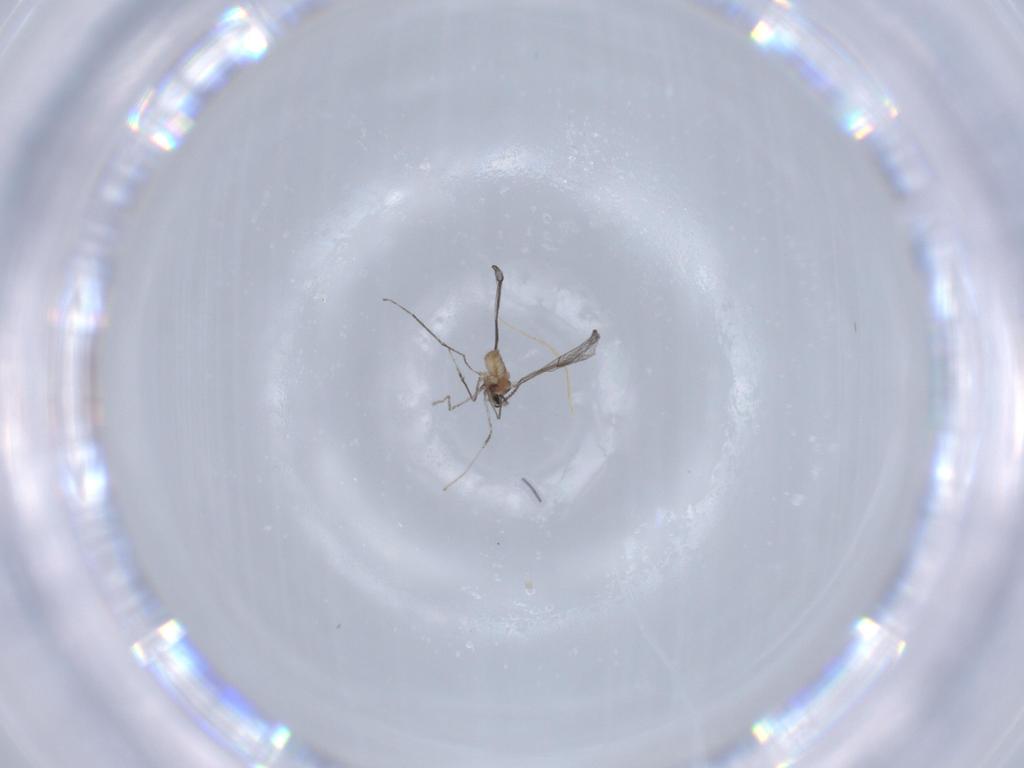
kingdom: Animalia
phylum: Arthropoda
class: Insecta
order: Diptera
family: Cecidomyiidae
